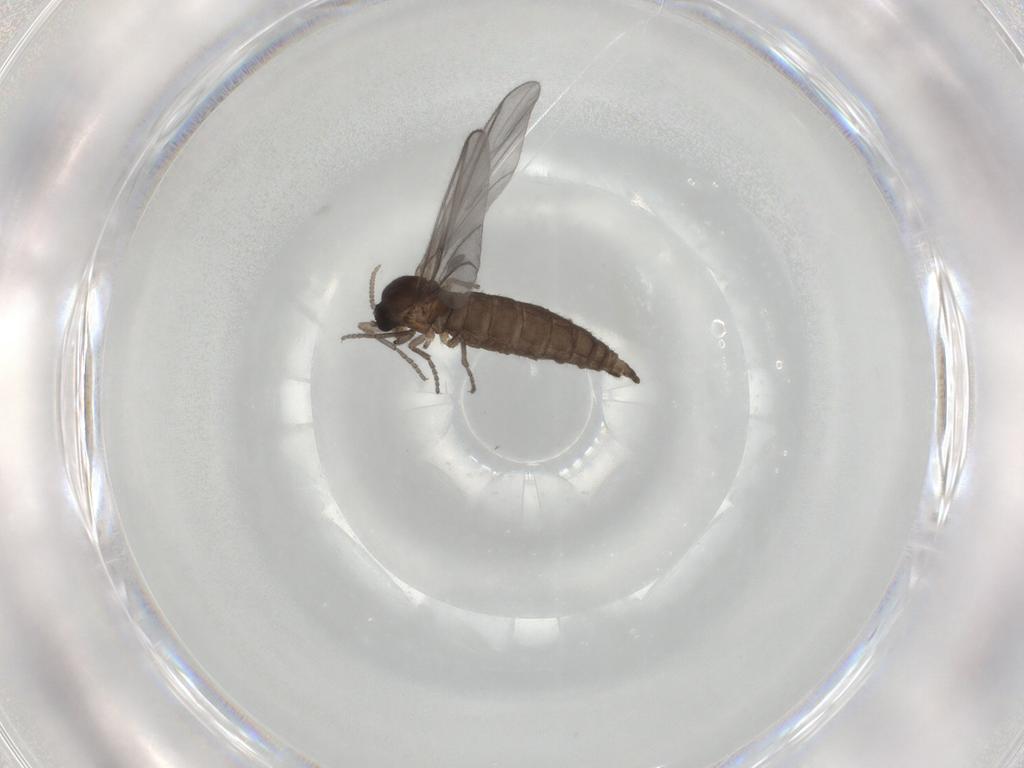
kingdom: Animalia
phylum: Arthropoda
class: Insecta
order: Diptera
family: Sciaridae
